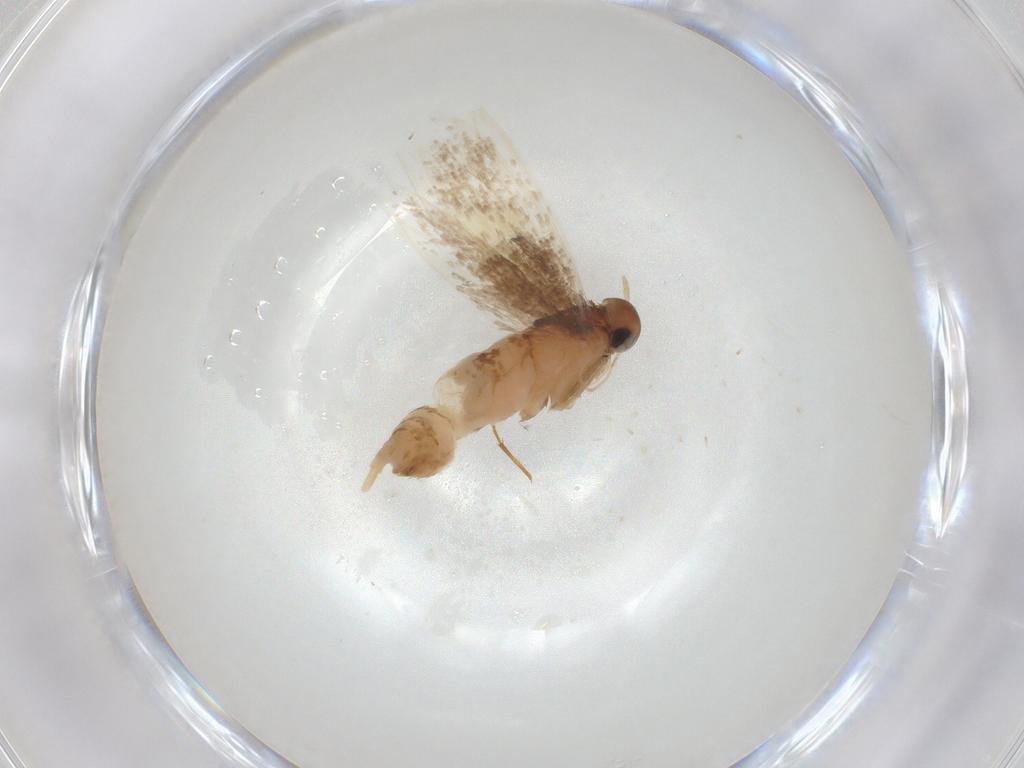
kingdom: Animalia
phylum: Arthropoda
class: Insecta
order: Lepidoptera
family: Oecophoridae
